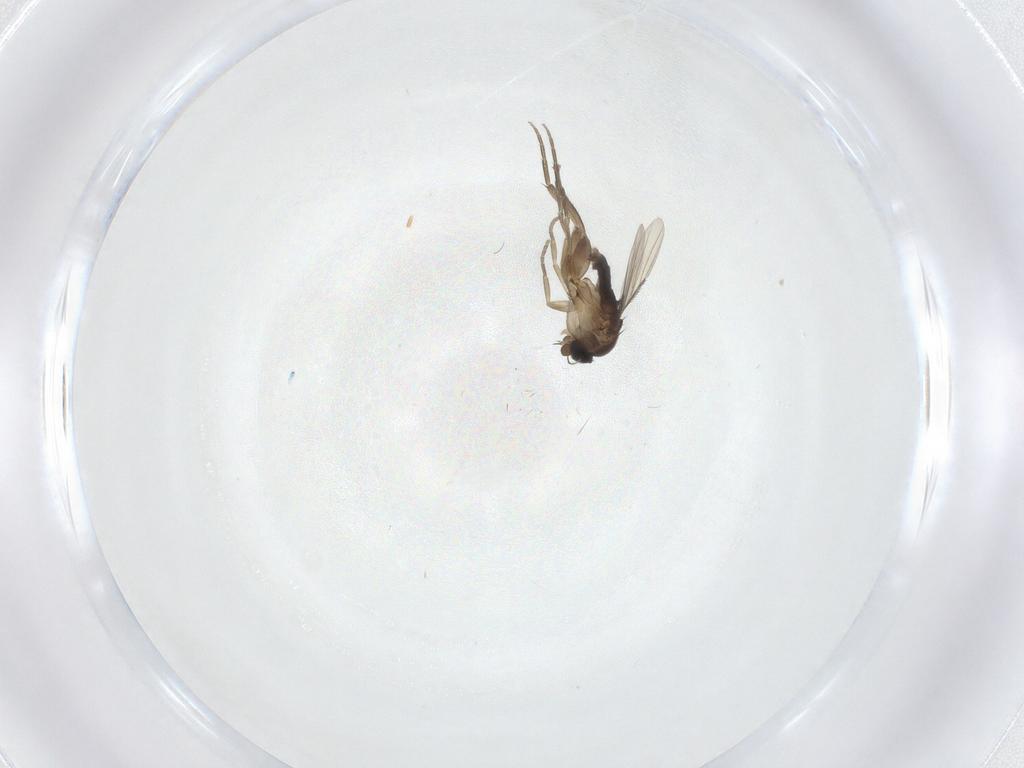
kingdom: Animalia
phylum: Arthropoda
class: Insecta
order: Diptera
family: Phoridae
